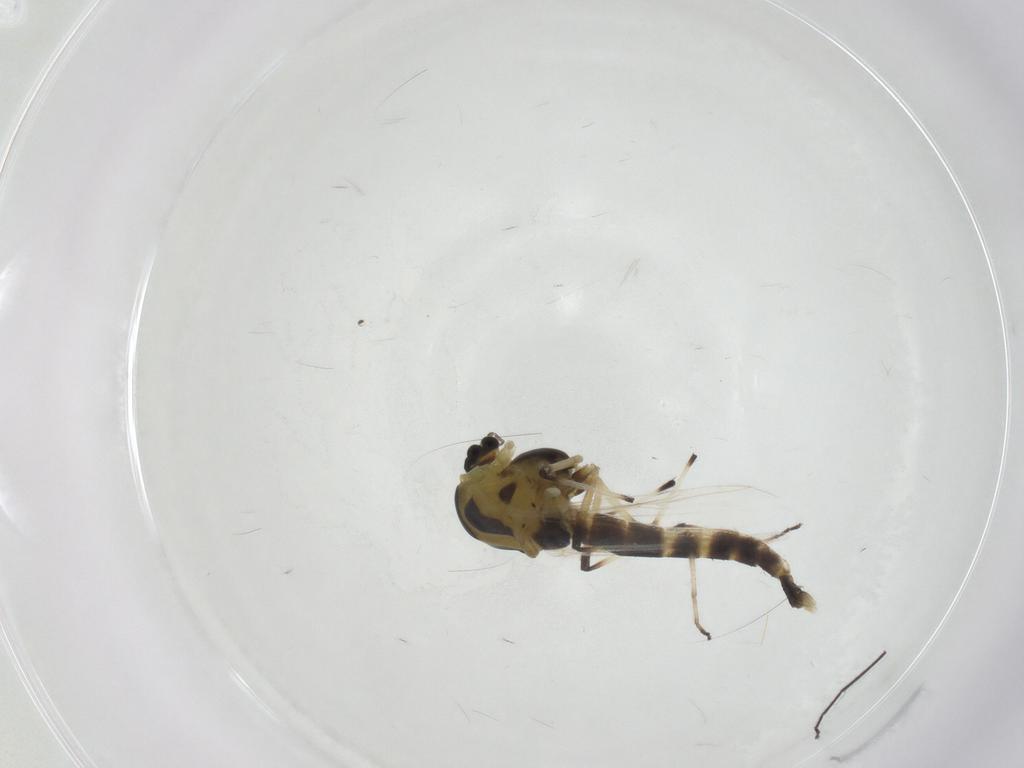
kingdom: Animalia
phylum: Arthropoda
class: Insecta
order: Diptera
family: Chironomidae
